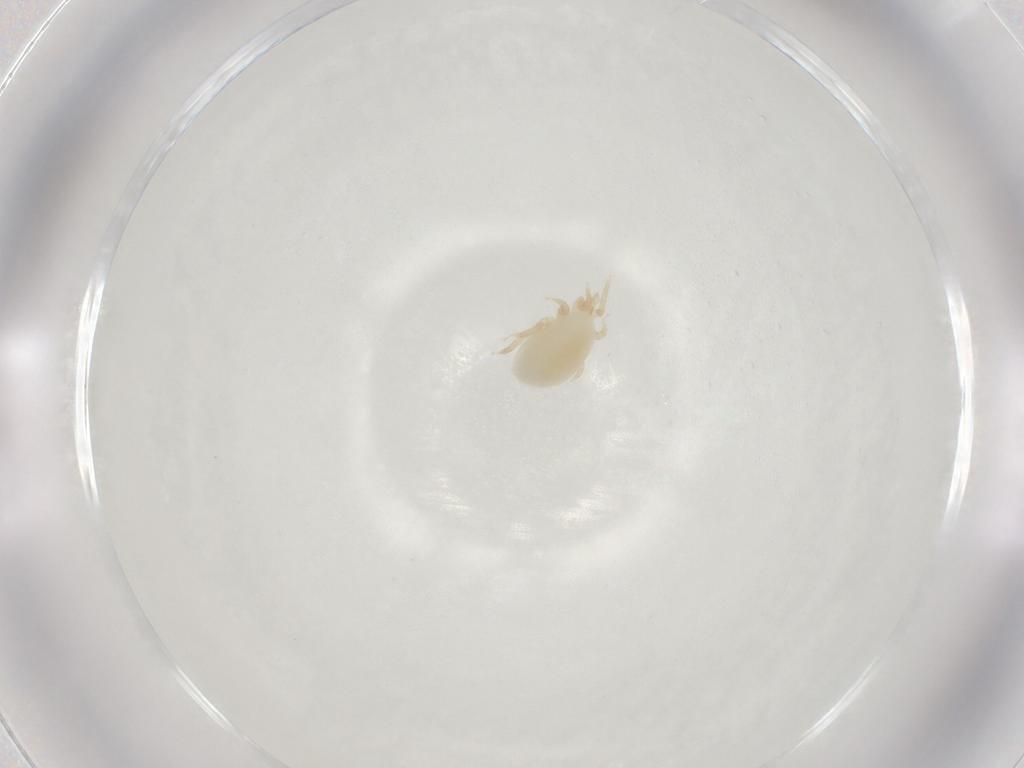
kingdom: Animalia
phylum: Arthropoda
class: Arachnida
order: Mesostigmata
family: Melicharidae
